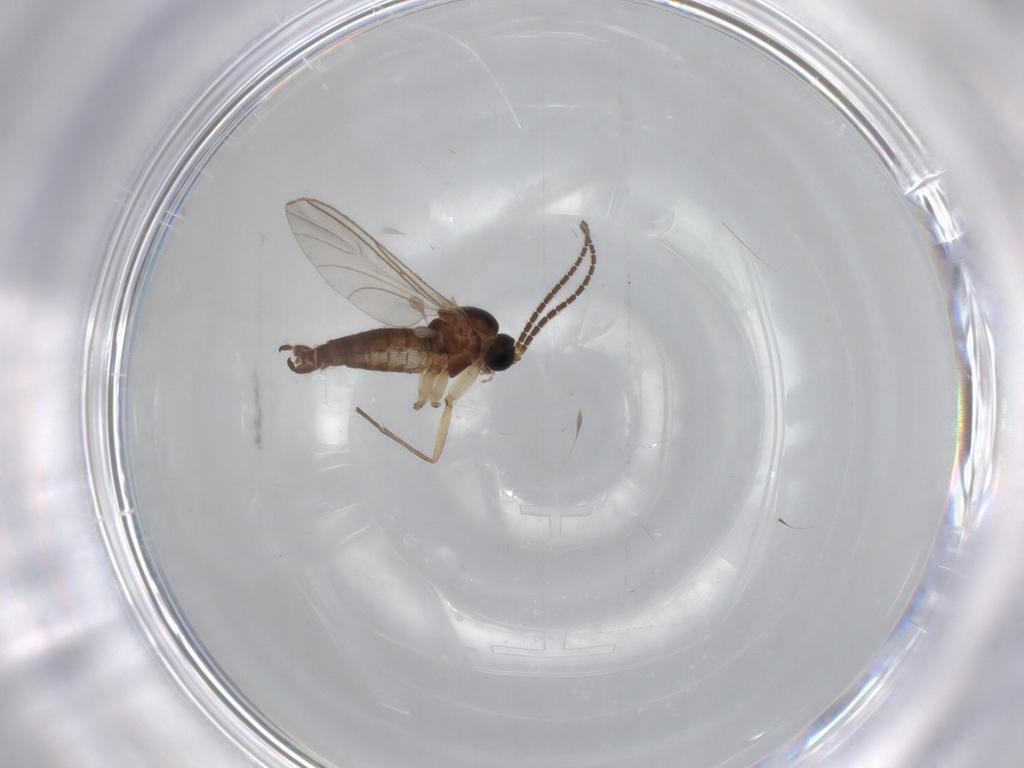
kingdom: Animalia
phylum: Arthropoda
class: Insecta
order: Diptera
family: Sciaridae
